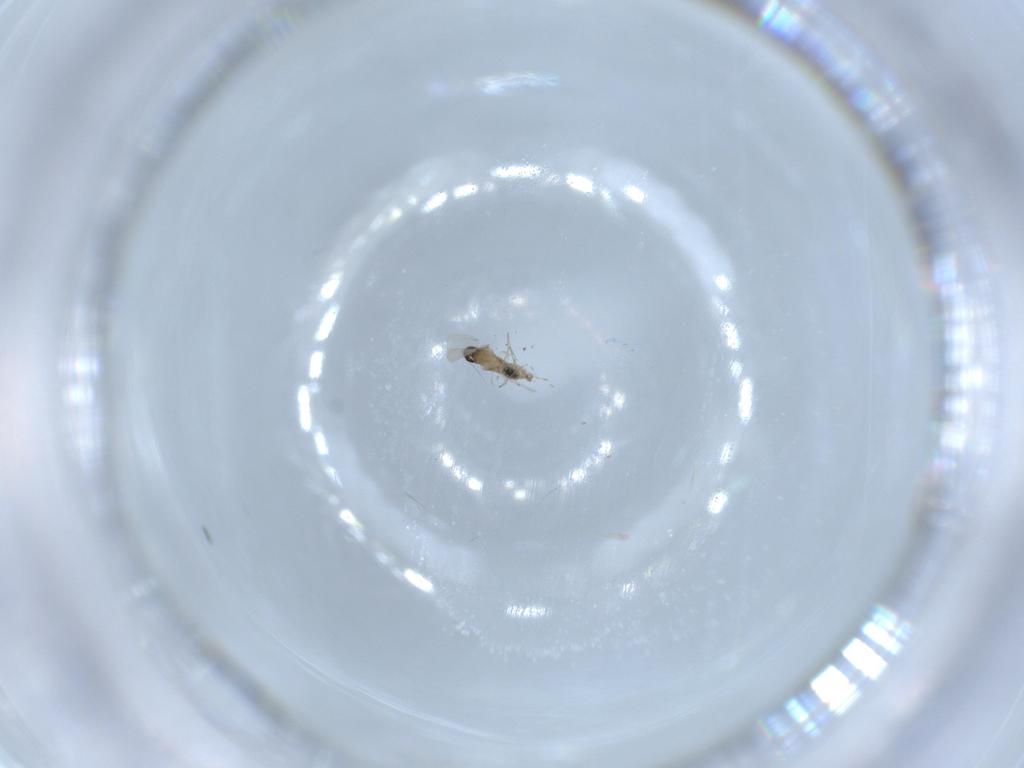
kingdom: Animalia
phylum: Arthropoda
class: Insecta
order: Diptera
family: Cecidomyiidae
